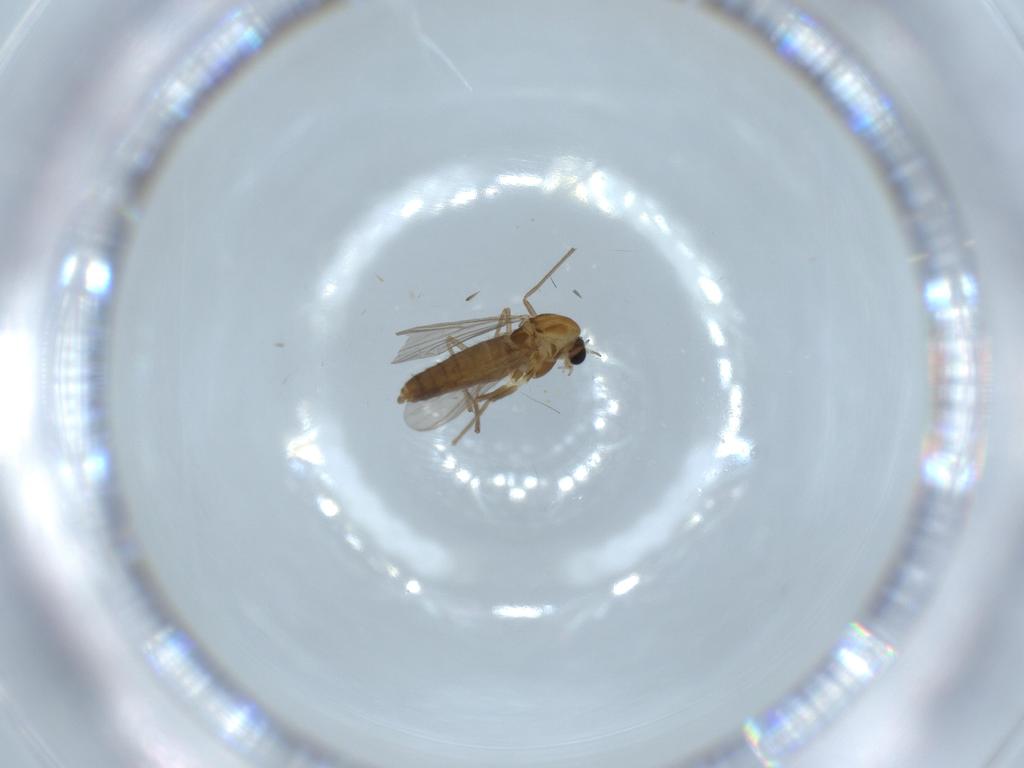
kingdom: Animalia
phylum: Arthropoda
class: Insecta
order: Diptera
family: Chironomidae
